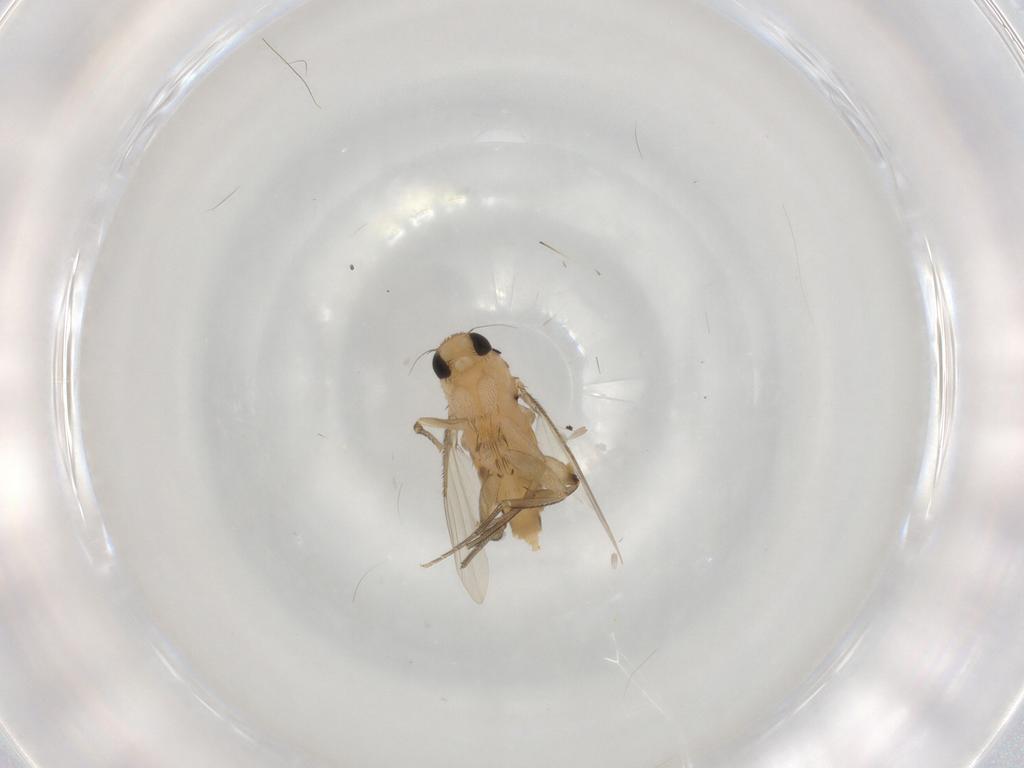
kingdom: Animalia
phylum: Arthropoda
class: Insecta
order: Diptera
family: Phoridae
